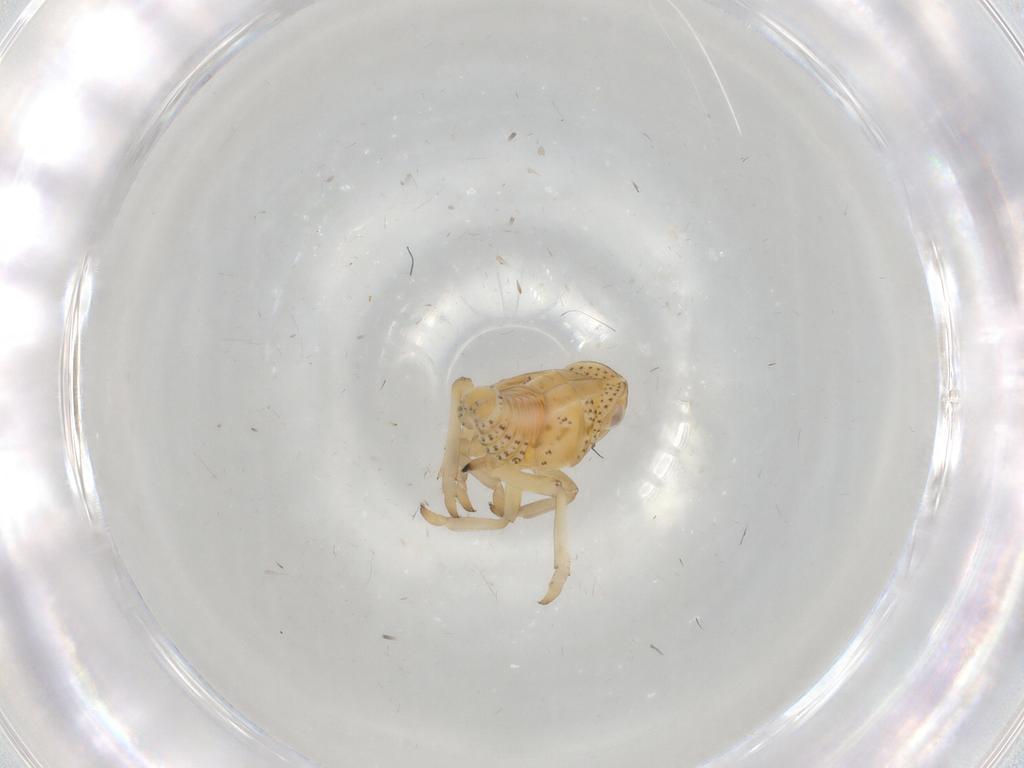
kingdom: Animalia
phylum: Arthropoda
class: Insecta
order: Hemiptera
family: Tropiduchidae
